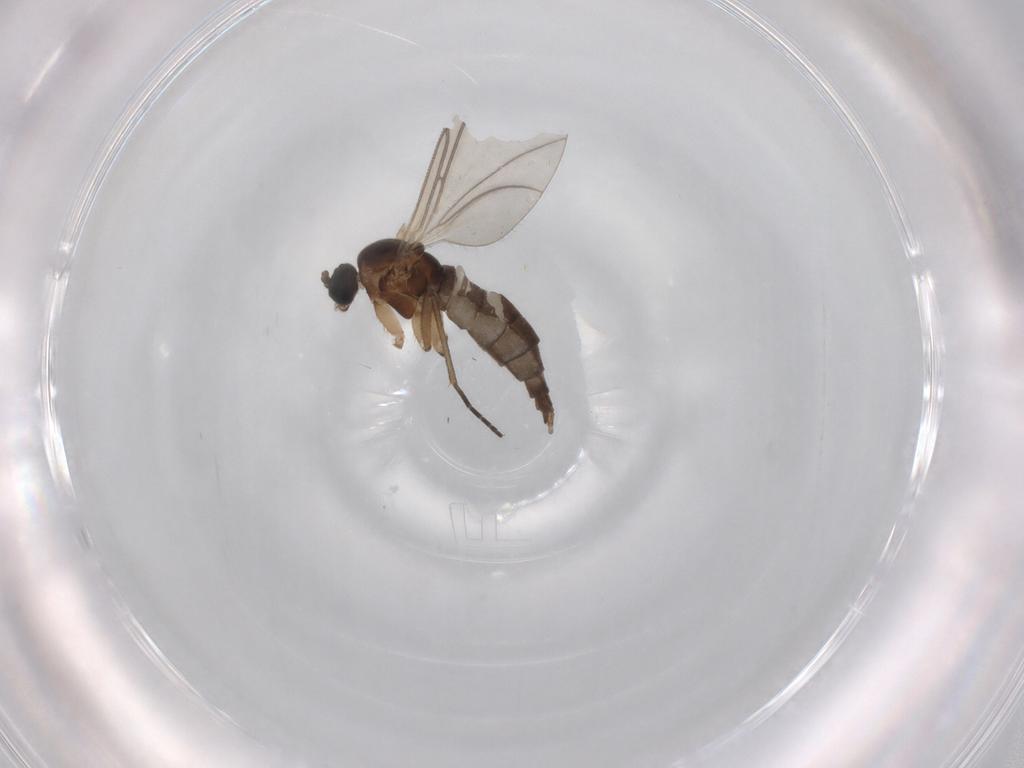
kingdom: Animalia
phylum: Arthropoda
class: Insecta
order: Diptera
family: Sciaridae
